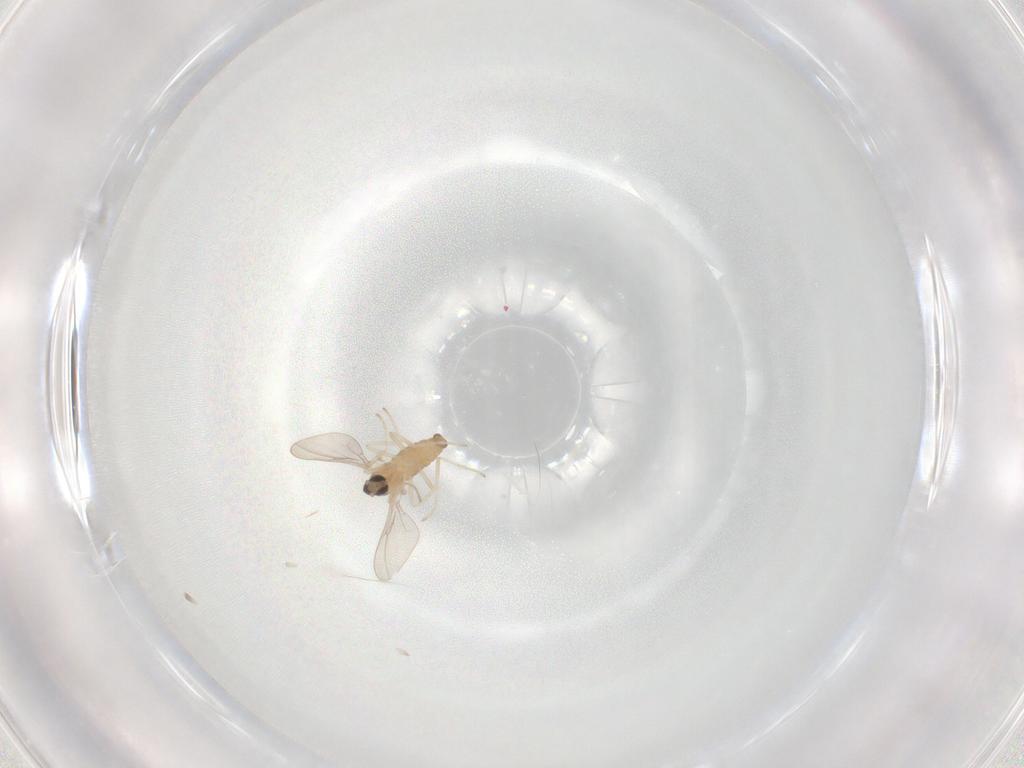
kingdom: Animalia
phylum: Arthropoda
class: Insecta
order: Diptera
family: Cecidomyiidae
